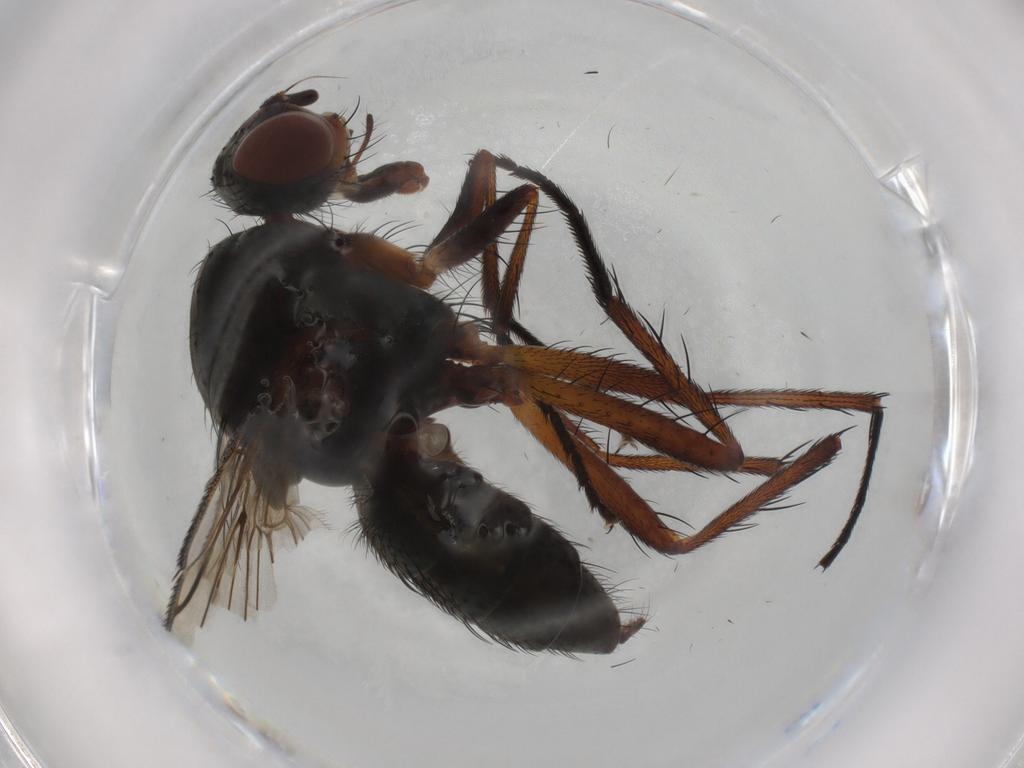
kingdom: Animalia
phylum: Arthropoda
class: Insecta
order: Diptera
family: Anthomyiidae
